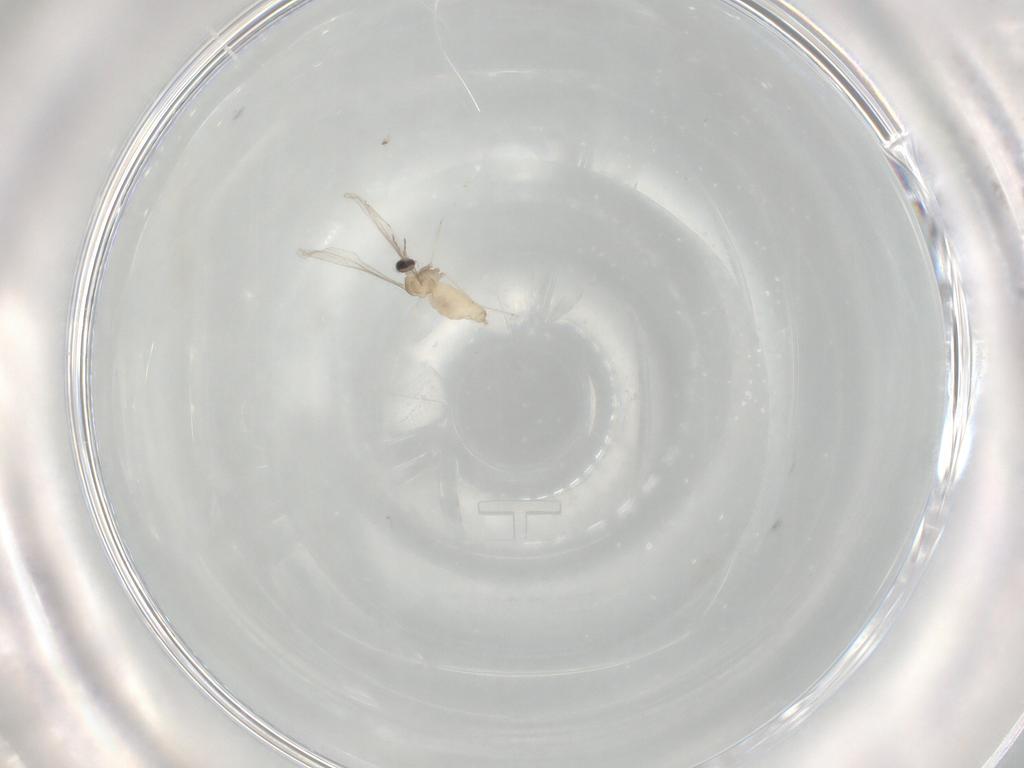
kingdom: Animalia
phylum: Arthropoda
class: Insecta
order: Diptera
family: Cecidomyiidae
